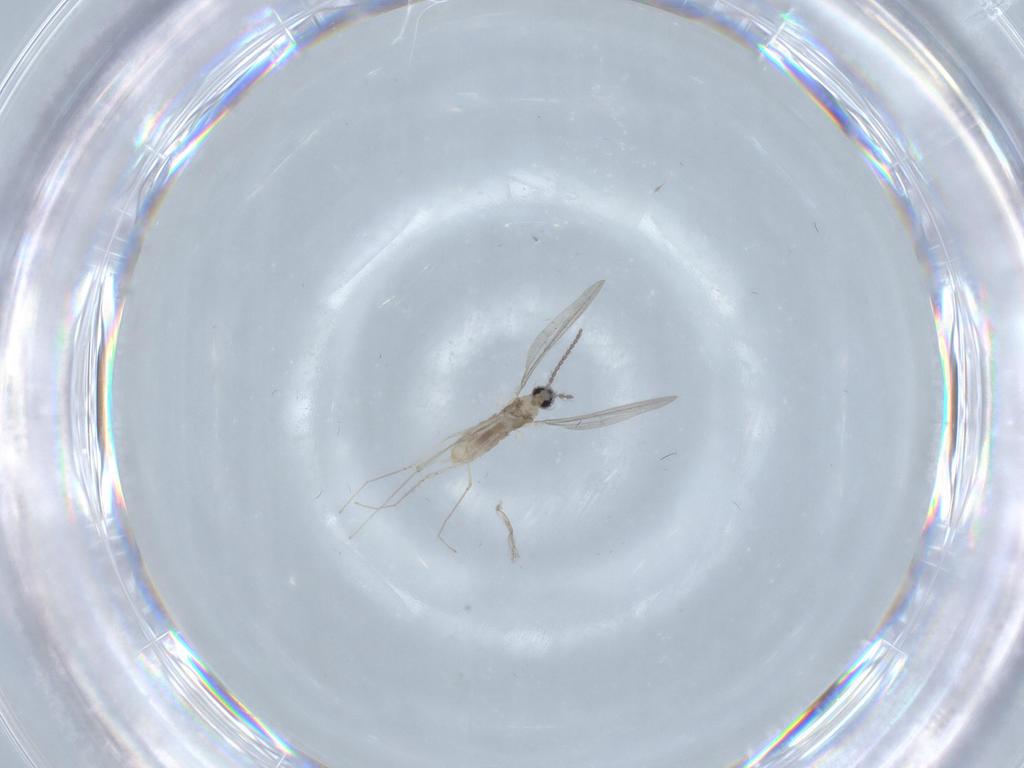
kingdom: Animalia
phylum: Arthropoda
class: Insecta
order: Diptera
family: Cecidomyiidae
